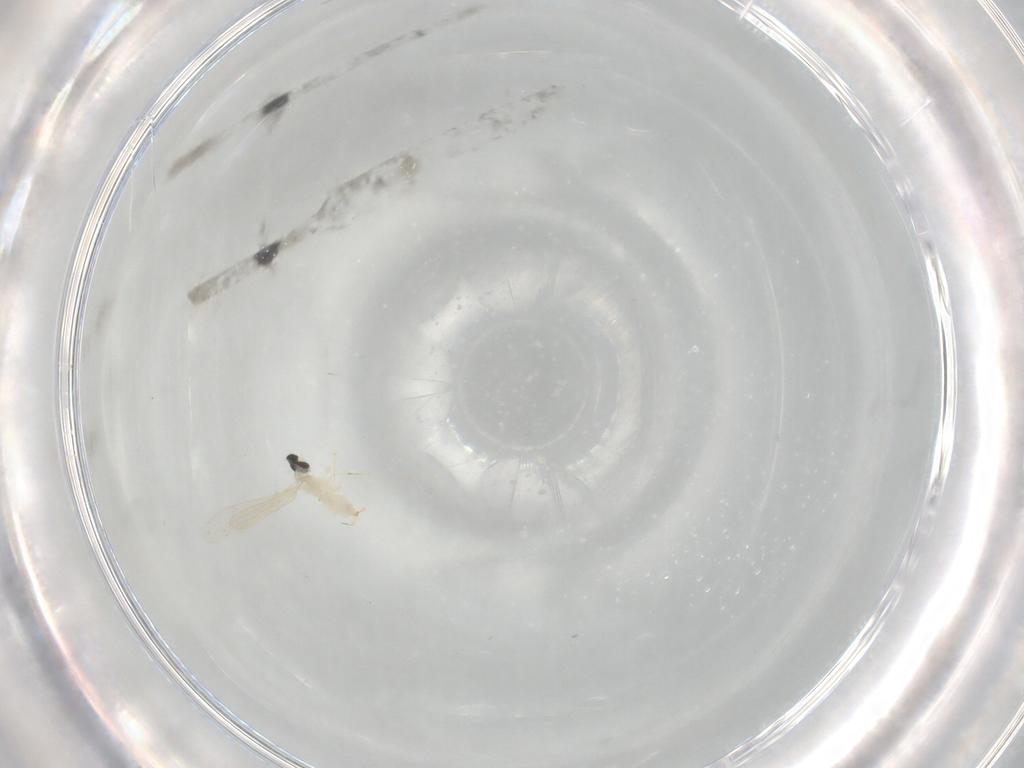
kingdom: Animalia
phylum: Arthropoda
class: Insecta
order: Diptera
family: Cecidomyiidae
